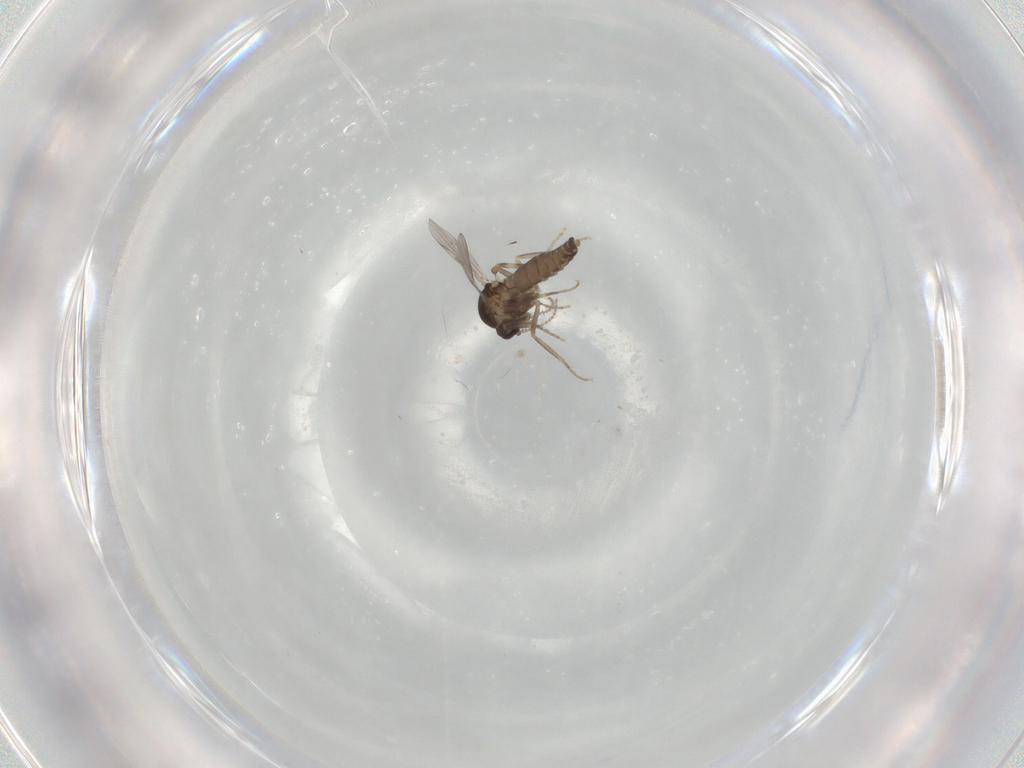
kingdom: Animalia
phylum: Arthropoda
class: Insecta
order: Diptera
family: Ceratopogonidae
